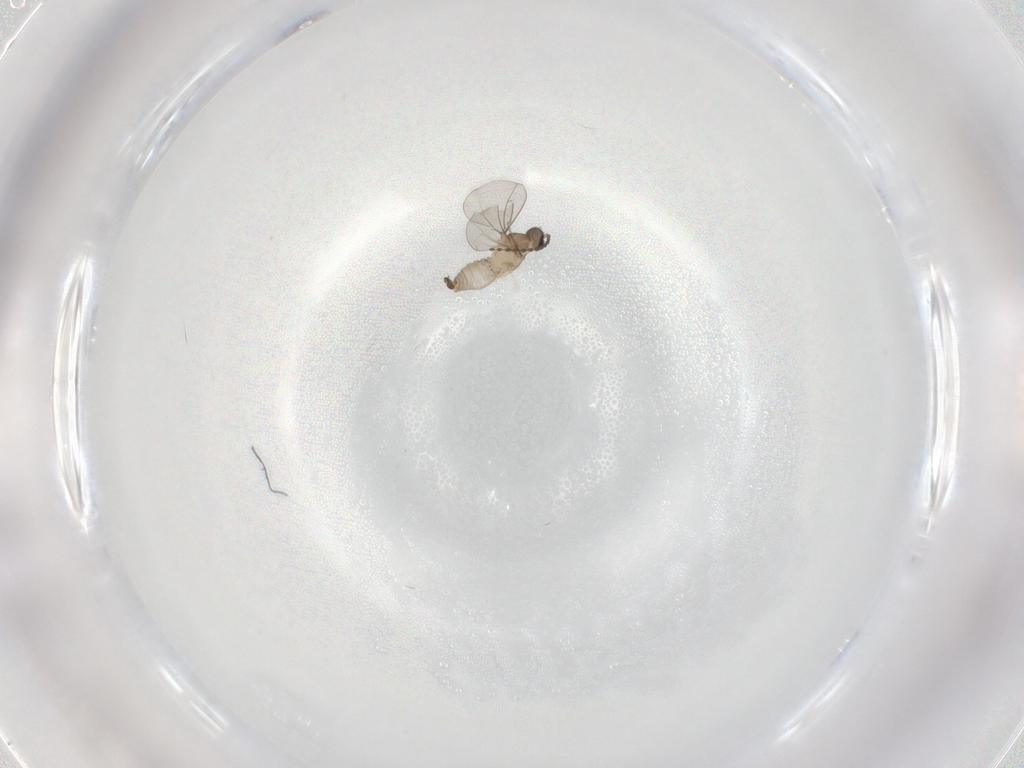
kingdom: Animalia
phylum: Arthropoda
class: Insecta
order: Diptera
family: Cecidomyiidae
